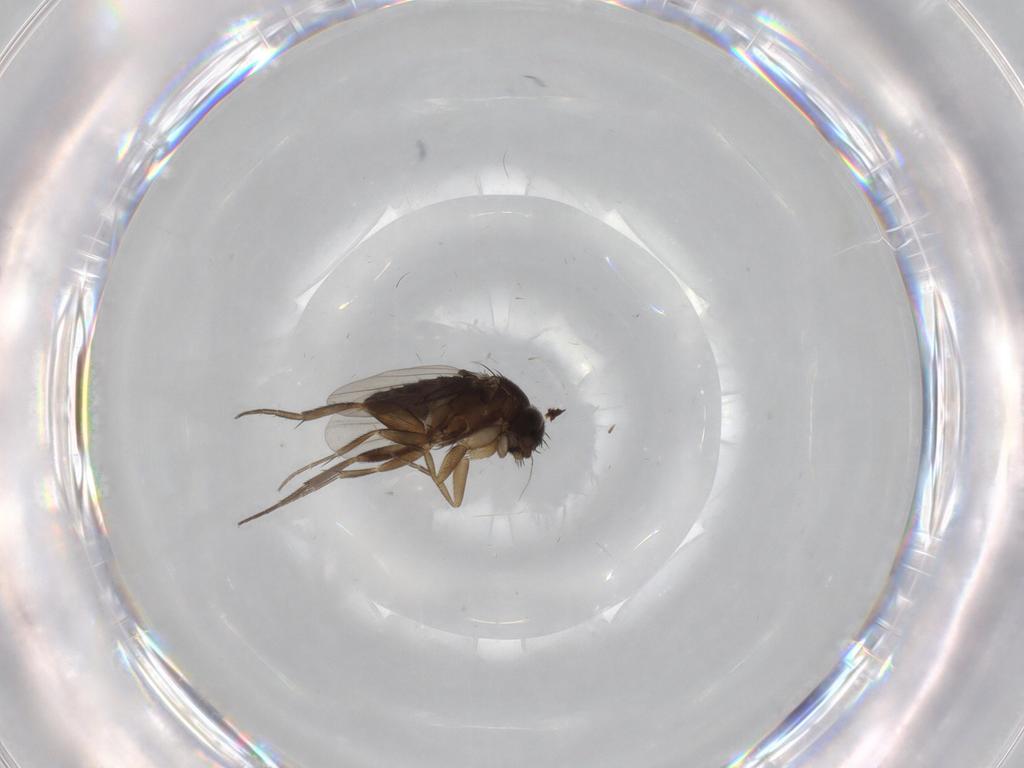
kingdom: Animalia
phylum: Arthropoda
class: Insecta
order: Diptera
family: Phoridae
